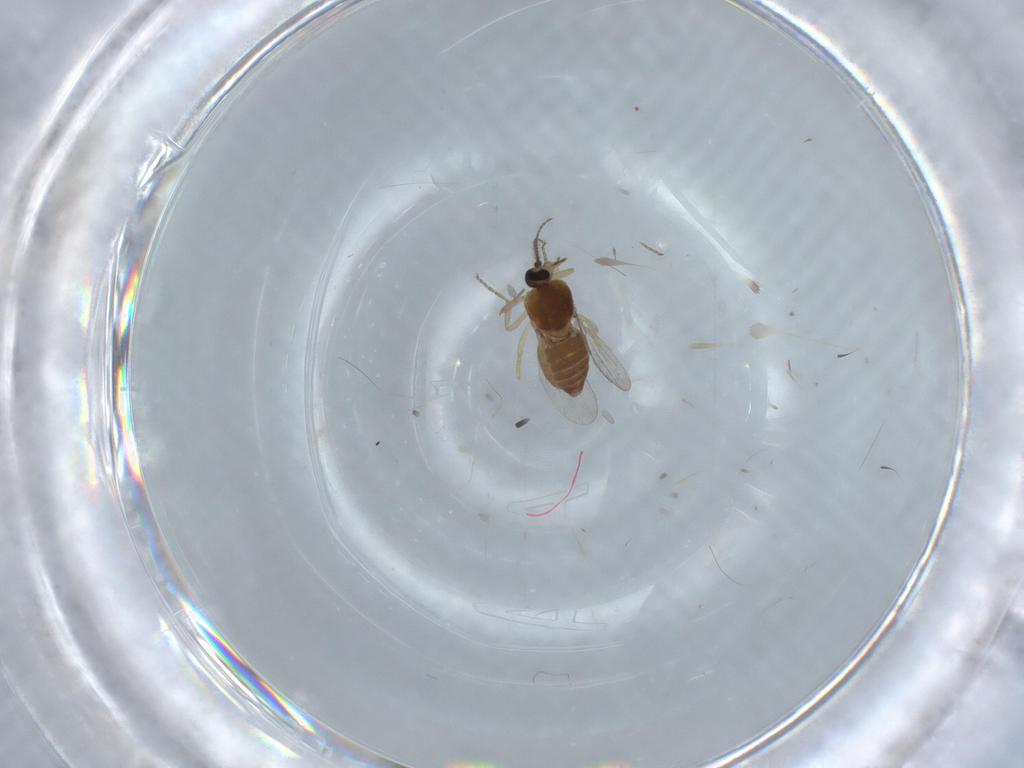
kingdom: Animalia
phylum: Arthropoda
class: Insecta
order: Diptera
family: Ceratopogonidae
